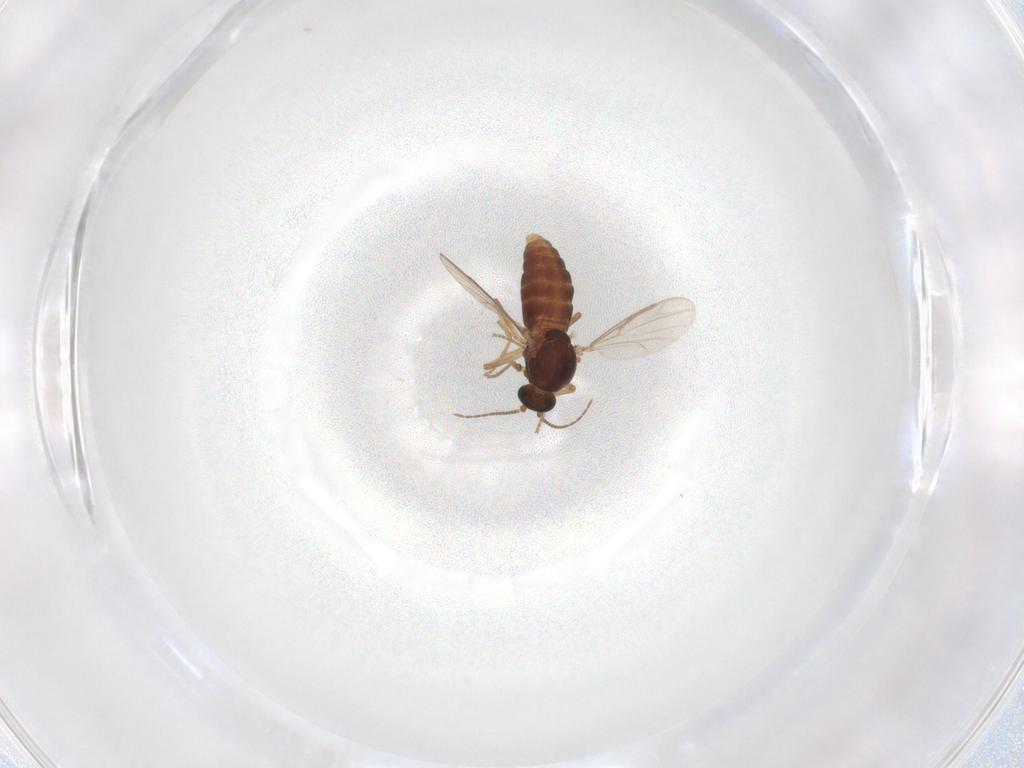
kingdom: Animalia
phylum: Arthropoda
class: Insecta
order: Diptera
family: Ceratopogonidae
